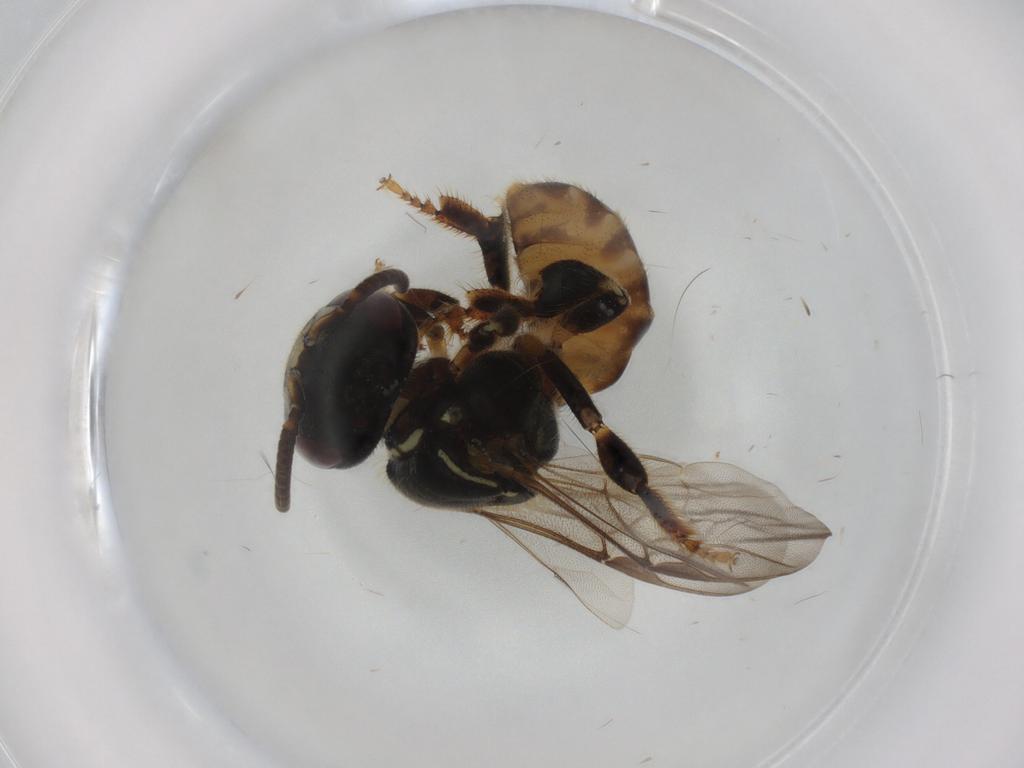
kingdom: Animalia
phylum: Arthropoda
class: Insecta
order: Hymenoptera
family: Apidae
